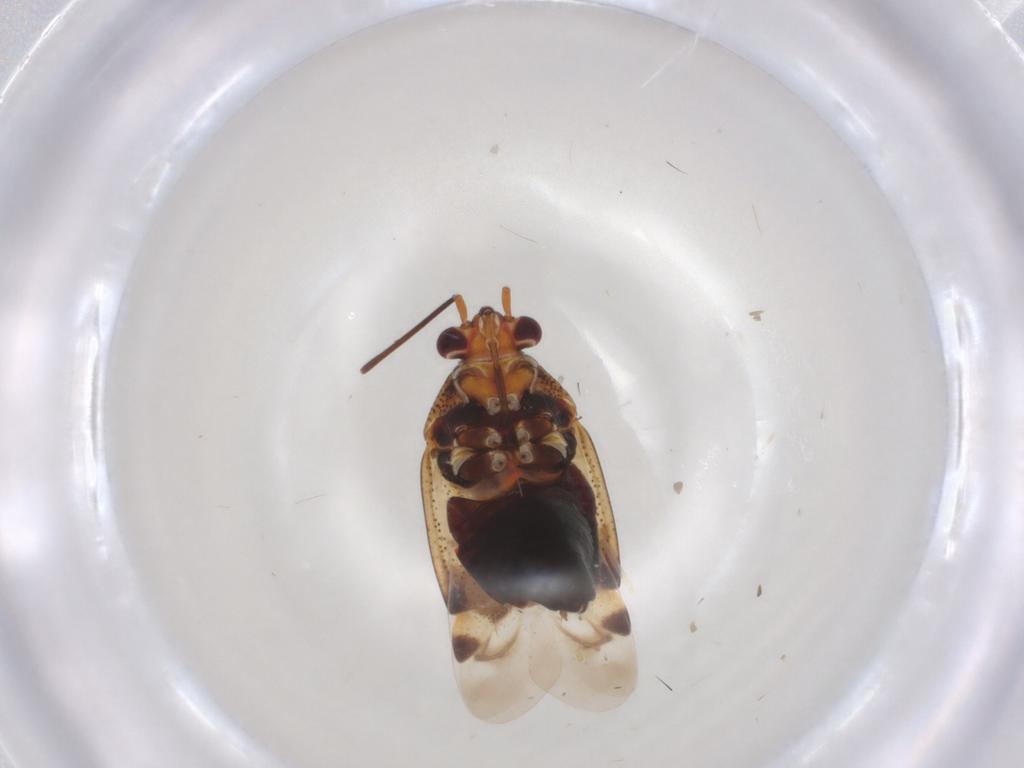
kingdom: Animalia
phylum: Arthropoda
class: Insecta
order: Hemiptera
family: Miridae
